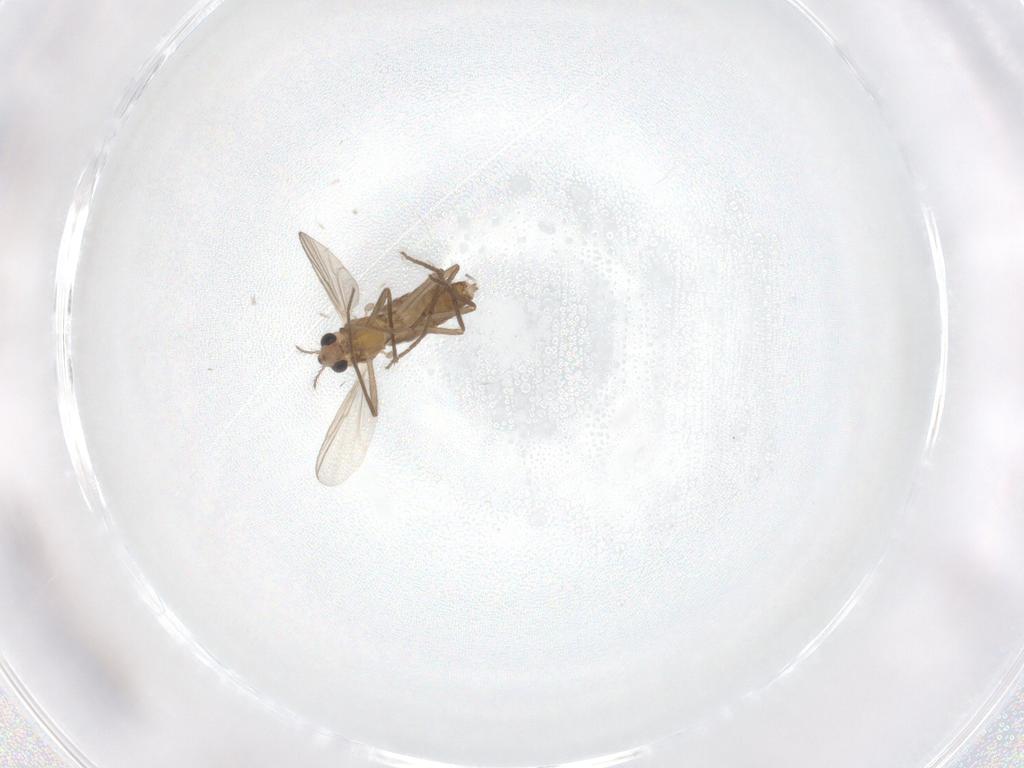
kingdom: Animalia
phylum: Arthropoda
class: Insecta
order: Diptera
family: Chironomidae
